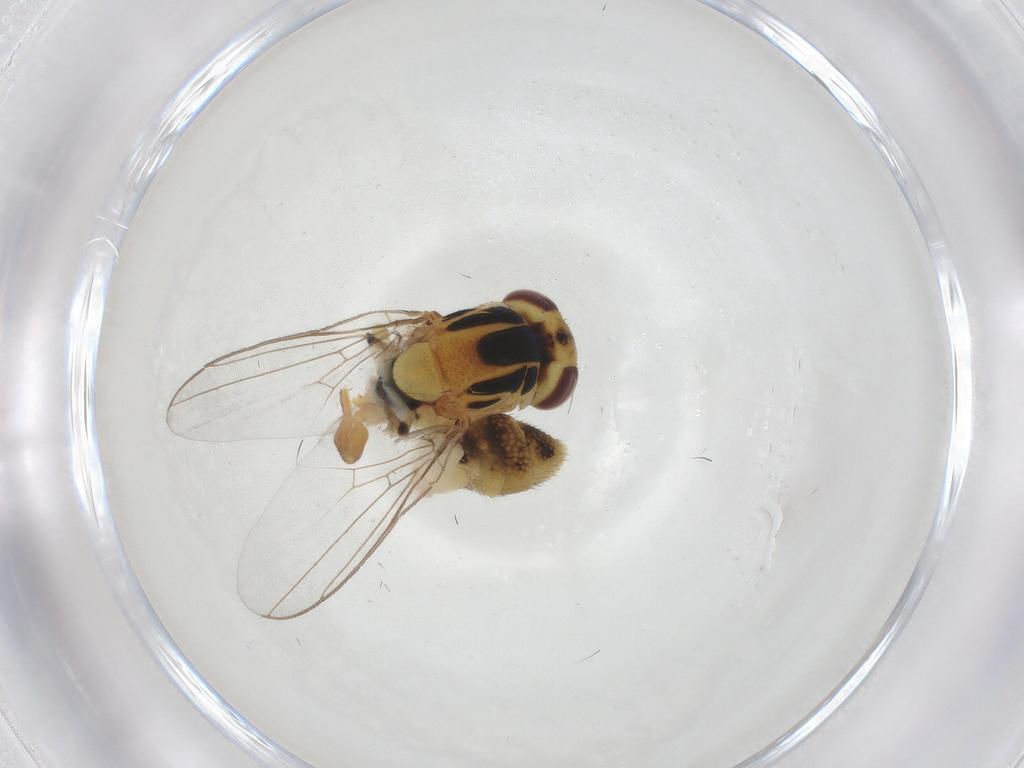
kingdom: Animalia
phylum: Arthropoda
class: Insecta
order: Diptera
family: Chloropidae
